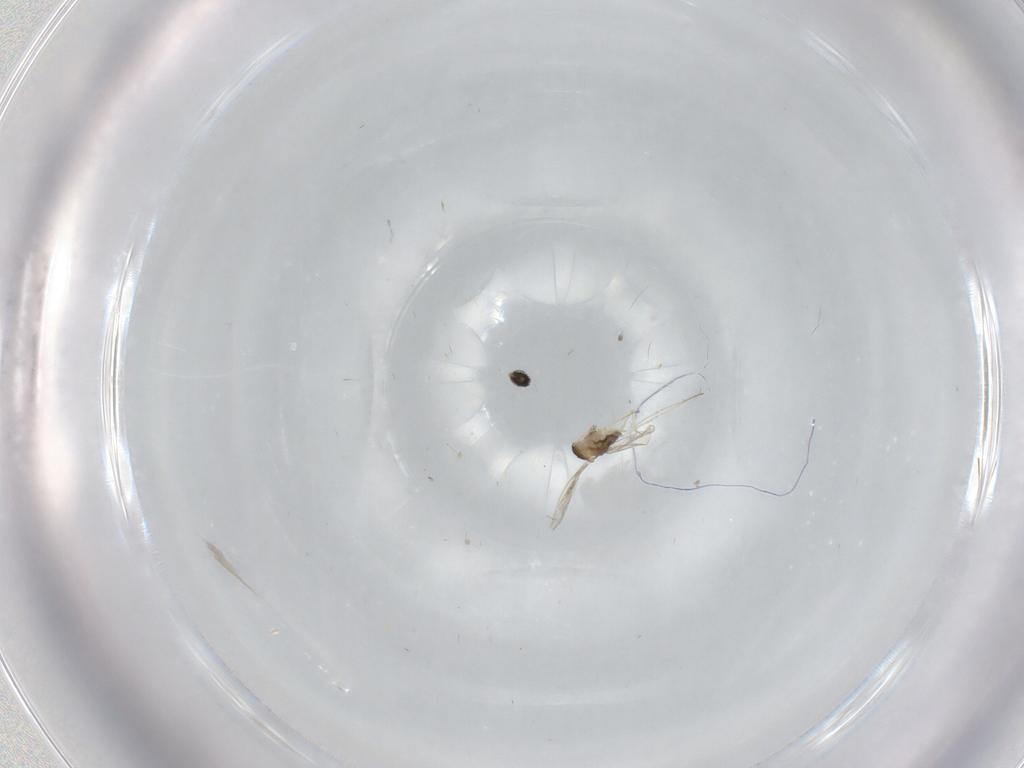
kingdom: Animalia
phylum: Arthropoda
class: Insecta
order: Diptera
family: Cecidomyiidae
